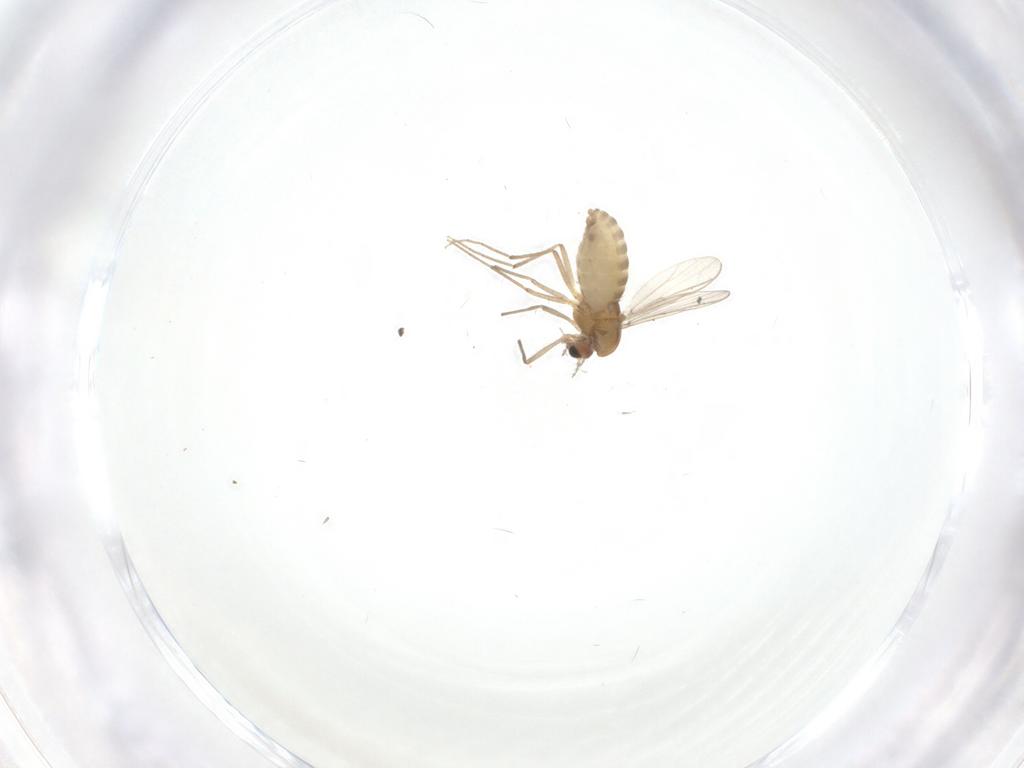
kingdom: Animalia
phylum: Arthropoda
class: Insecta
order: Diptera
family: Chironomidae
